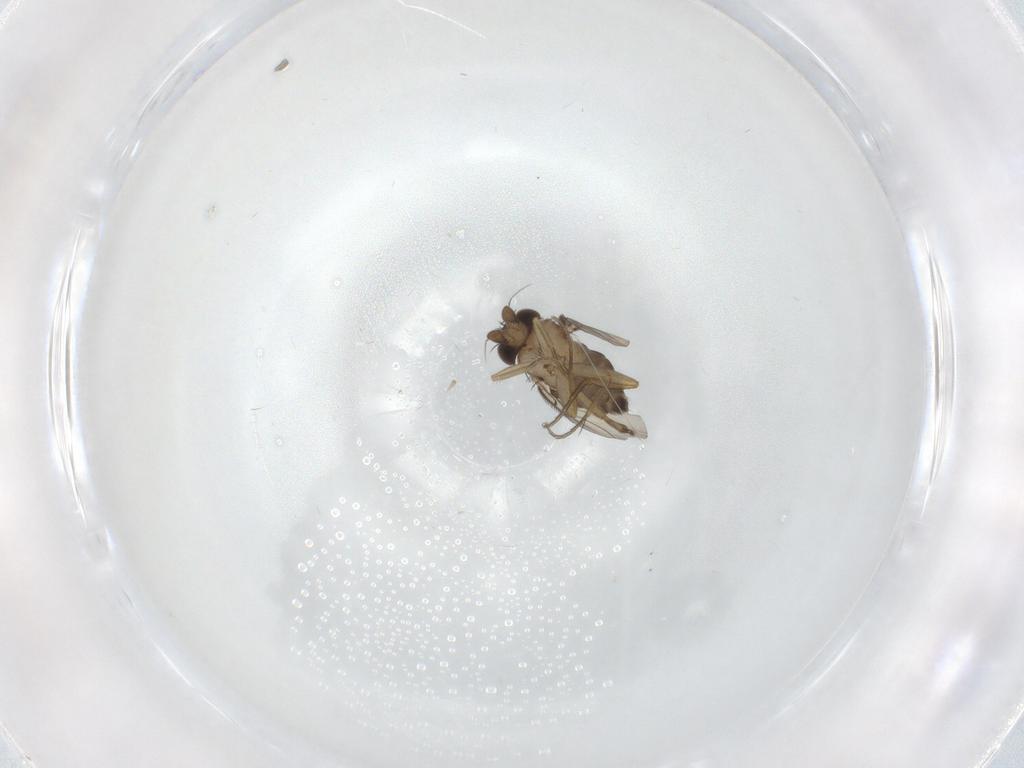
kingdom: Animalia
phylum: Arthropoda
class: Insecta
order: Diptera
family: Phoridae
